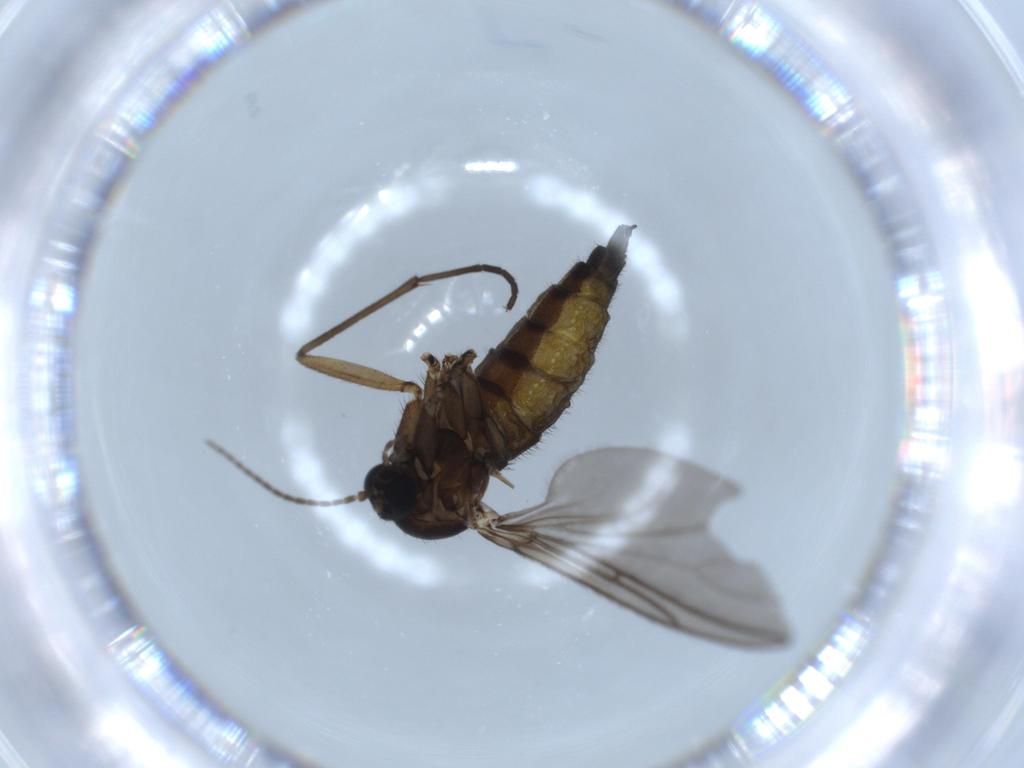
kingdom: Animalia
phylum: Arthropoda
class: Insecta
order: Diptera
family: Sciaridae
